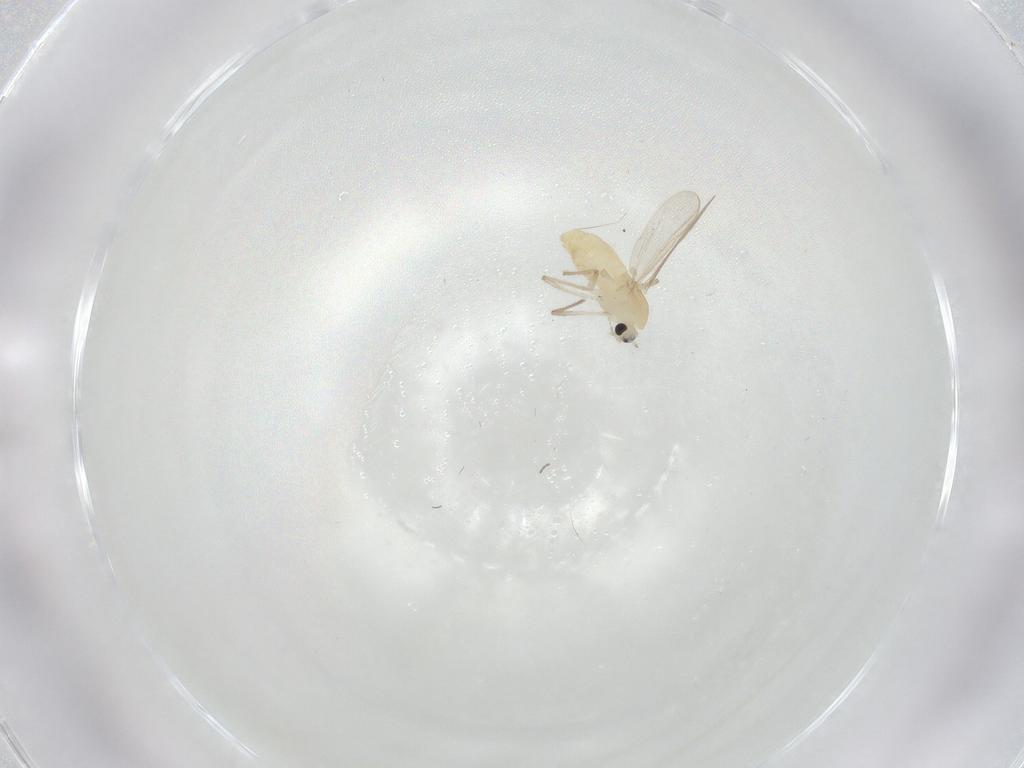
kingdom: Animalia
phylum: Arthropoda
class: Insecta
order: Diptera
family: Chironomidae
